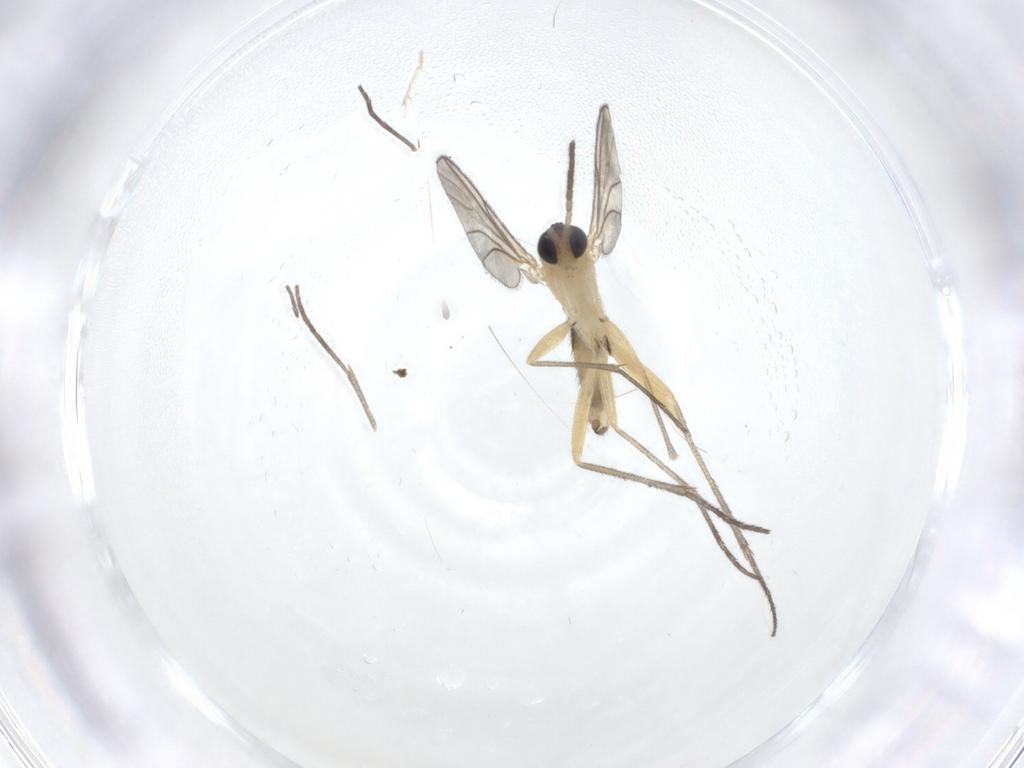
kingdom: Animalia
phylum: Arthropoda
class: Insecta
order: Diptera
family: Sciaridae
